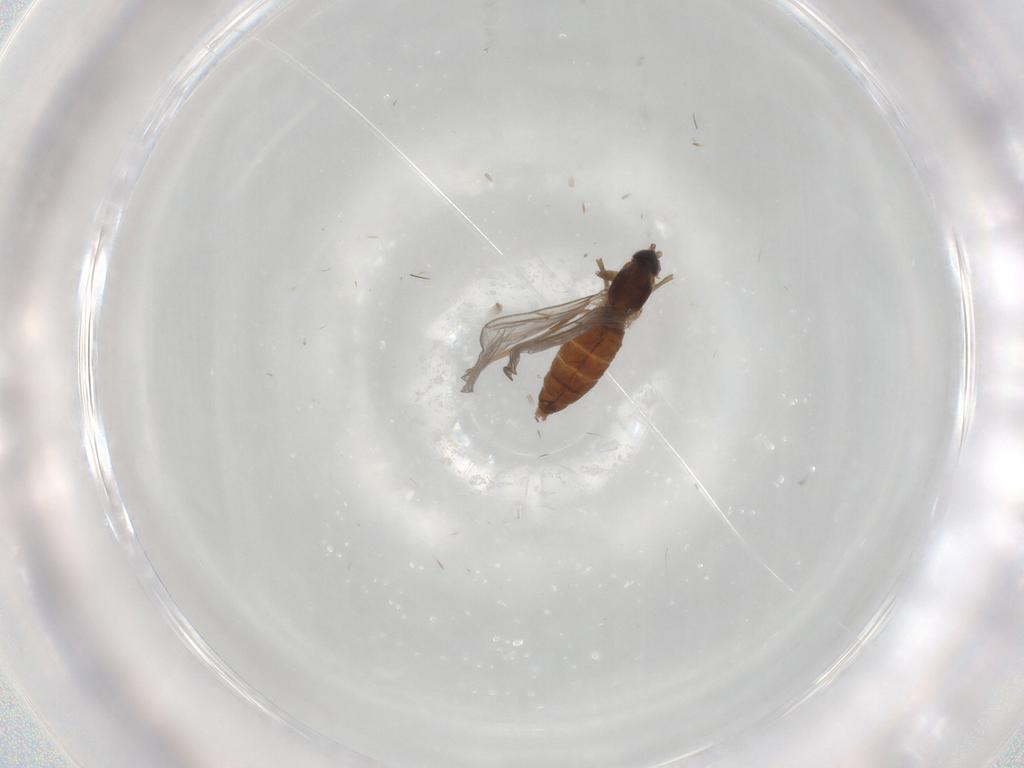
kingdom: Animalia
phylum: Arthropoda
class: Insecta
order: Diptera
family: Cecidomyiidae
